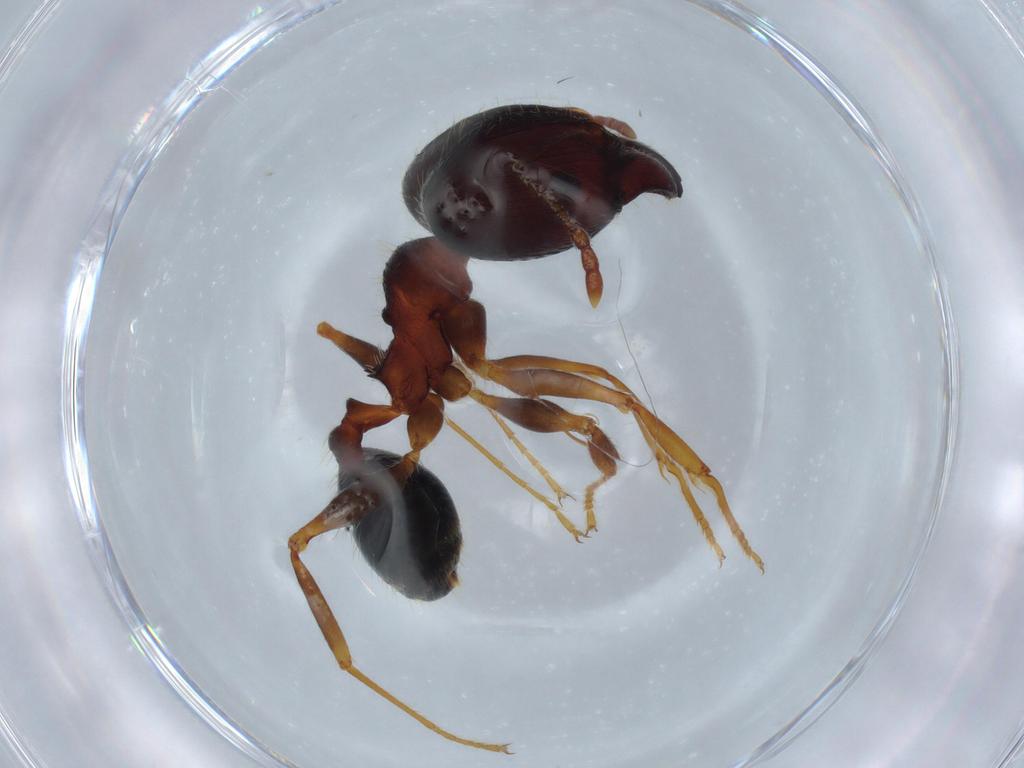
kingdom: Animalia
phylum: Arthropoda
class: Insecta
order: Hymenoptera
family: Formicidae
